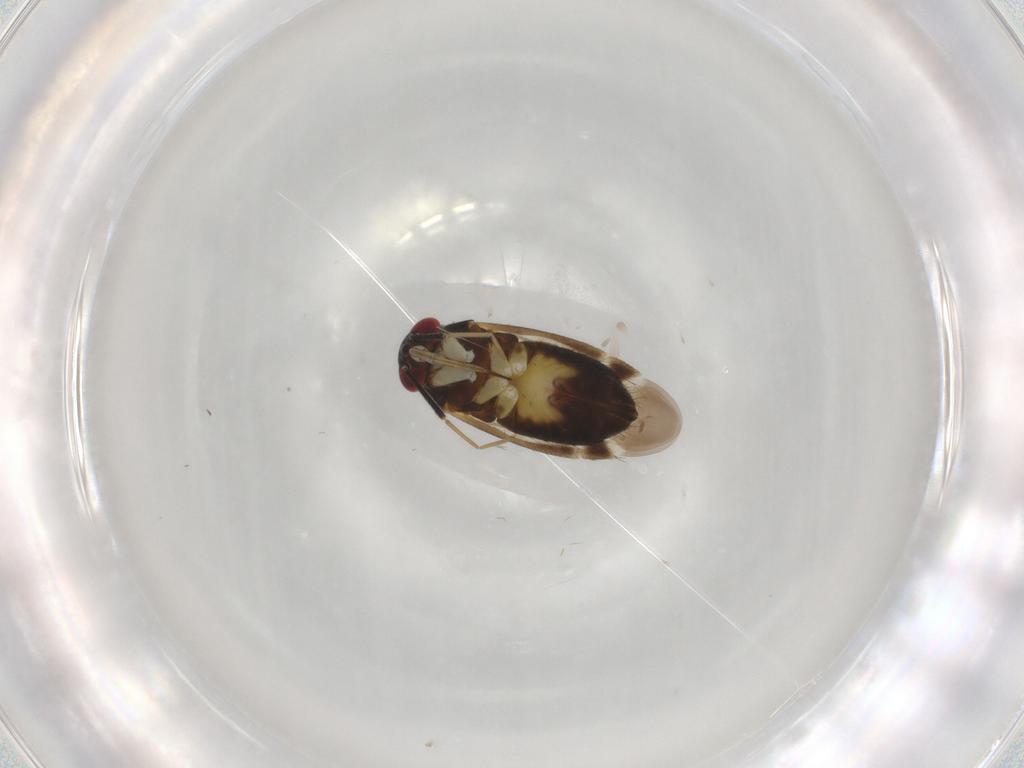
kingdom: Animalia
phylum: Arthropoda
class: Insecta
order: Hemiptera
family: Miridae
